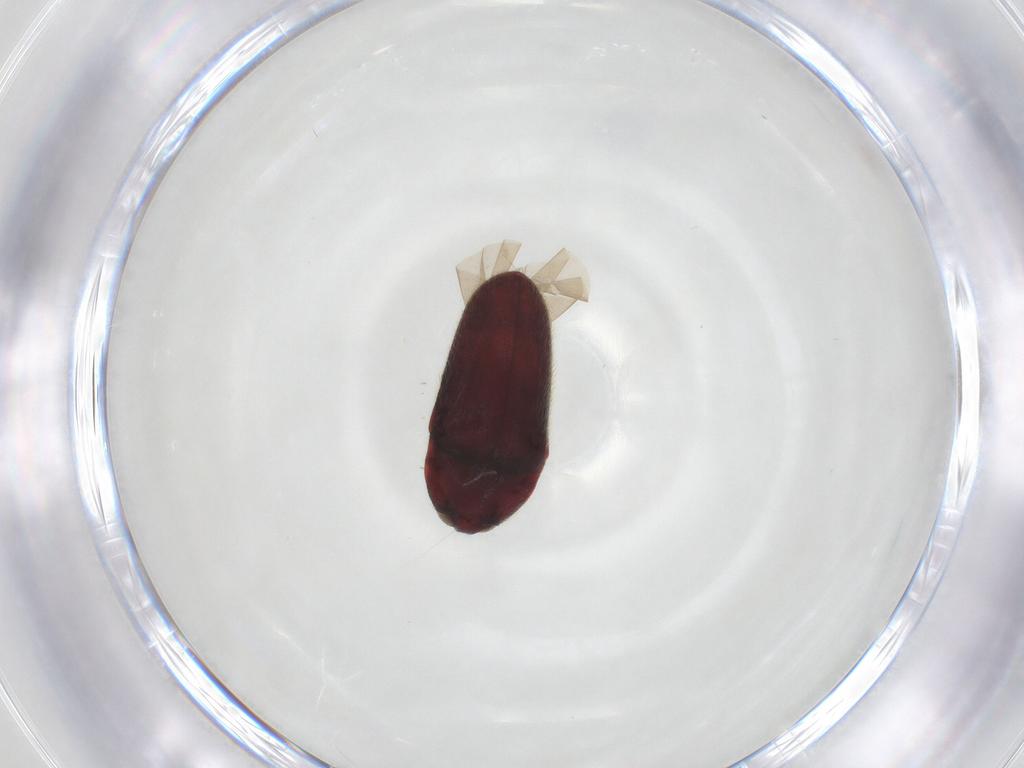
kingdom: Animalia
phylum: Arthropoda
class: Insecta
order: Coleoptera
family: Throscidae
